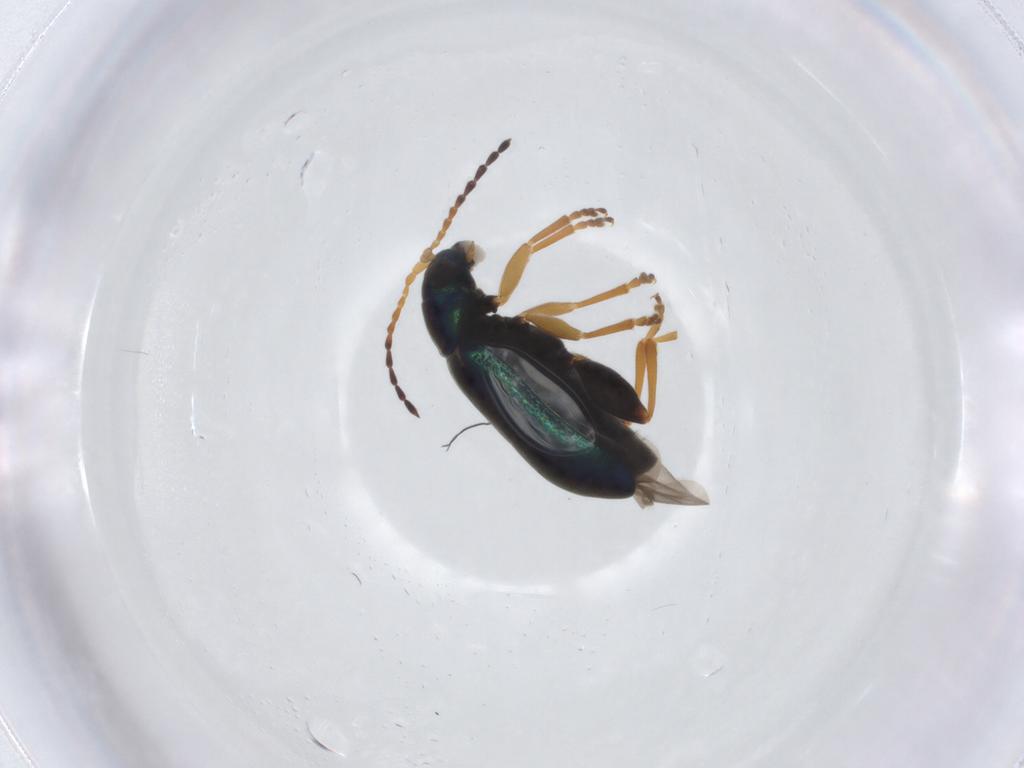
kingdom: Animalia
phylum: Arthropoda
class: Insecta
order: Coleoptera
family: Chrysomelidae
